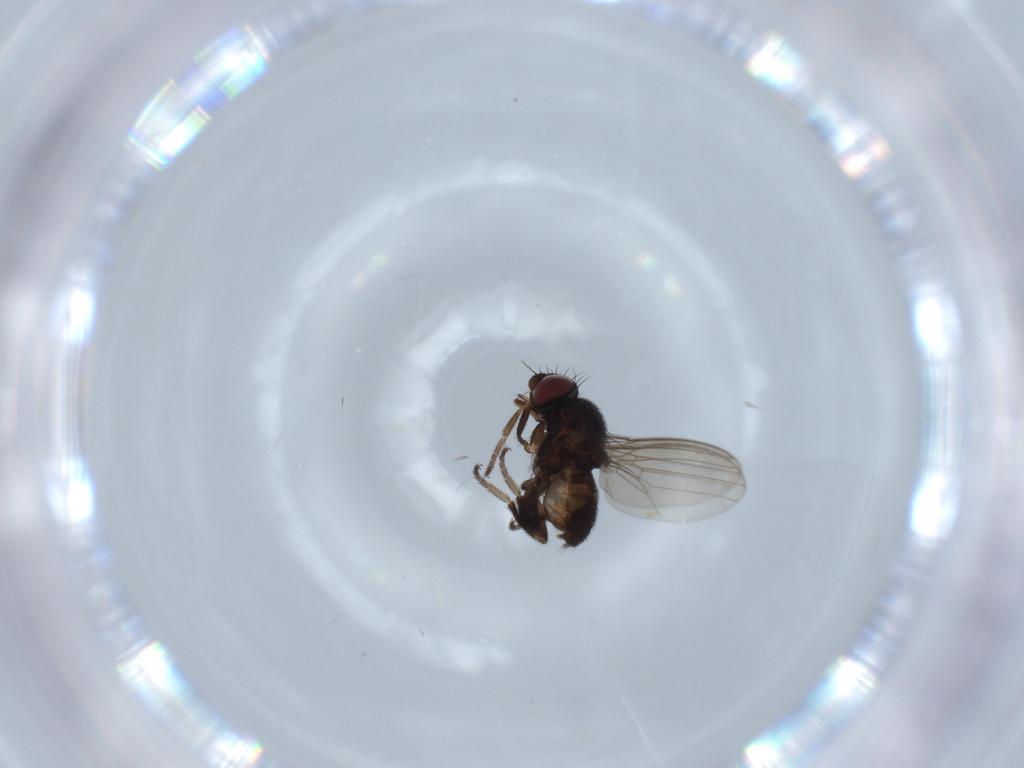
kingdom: Animalia
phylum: Arthropoda
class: Insecta
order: Diptera
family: Milichiidae
